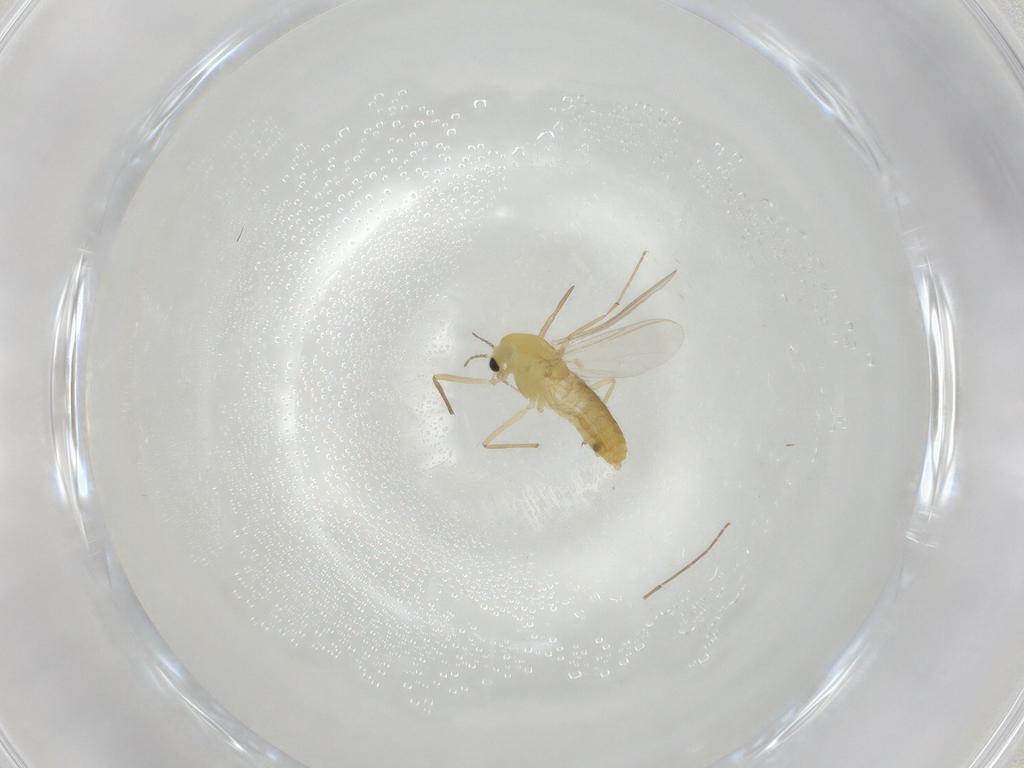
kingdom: Animalia
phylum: Arthropoda
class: Insecta
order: Diptera
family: Chironomidae
